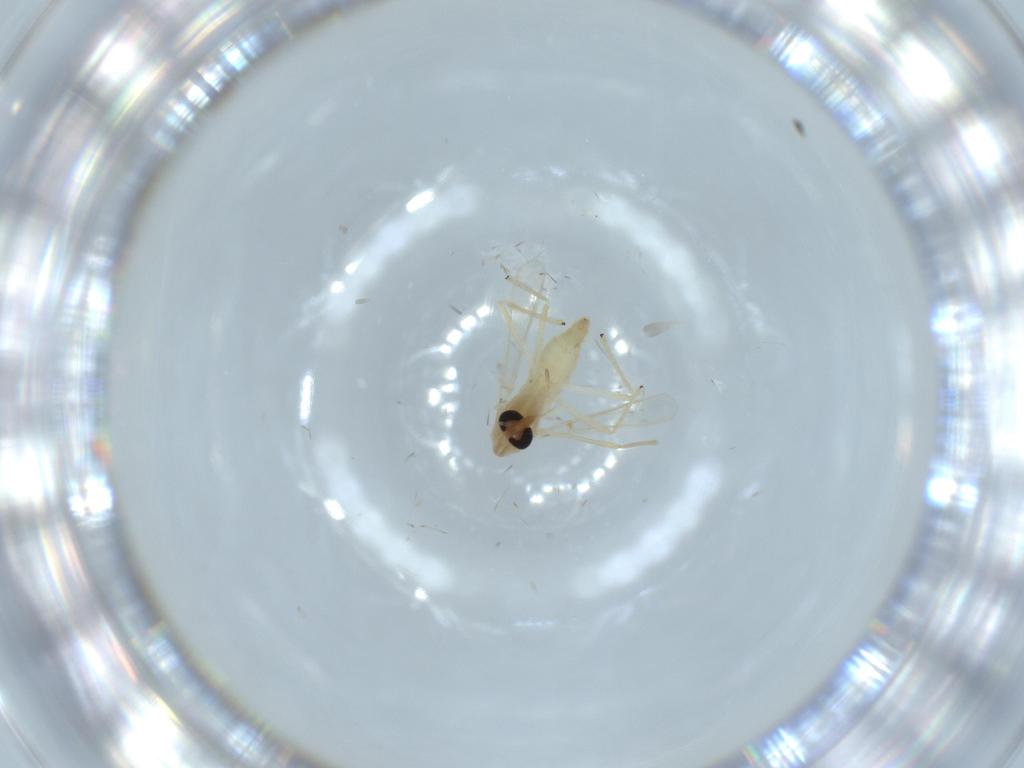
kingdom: Animalia
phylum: Arthropoda
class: Insecta
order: Diptera
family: Chironomidae
